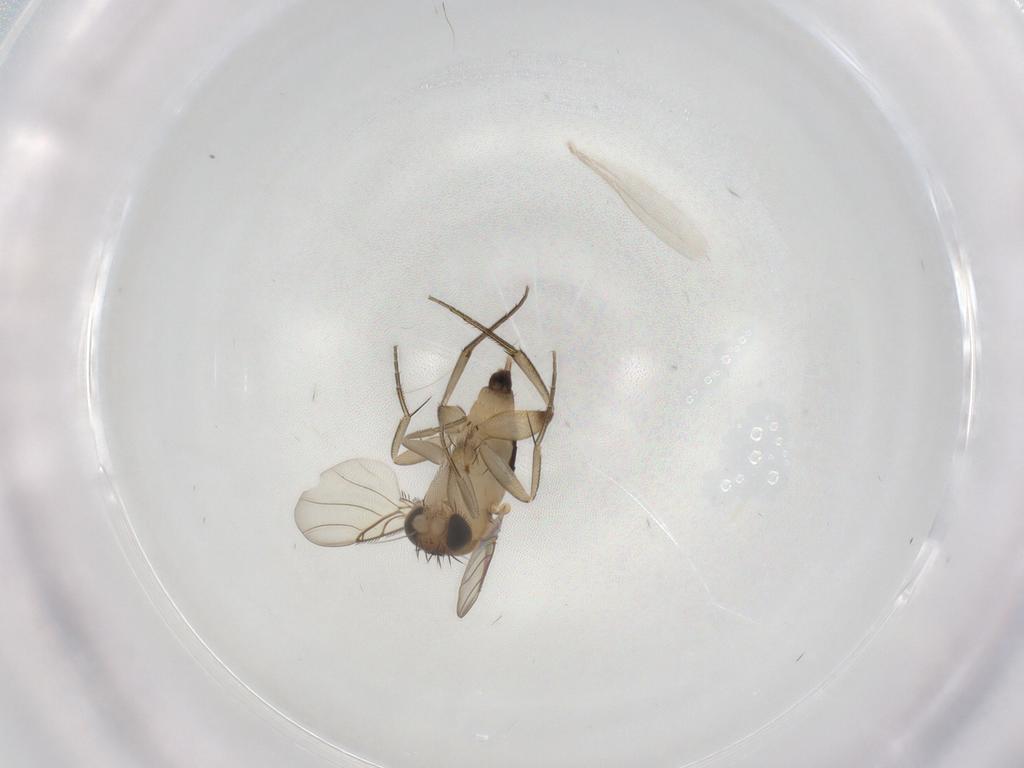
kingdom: Animalia
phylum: Arthropoda
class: Insecta
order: Diptera
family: Phoridae
